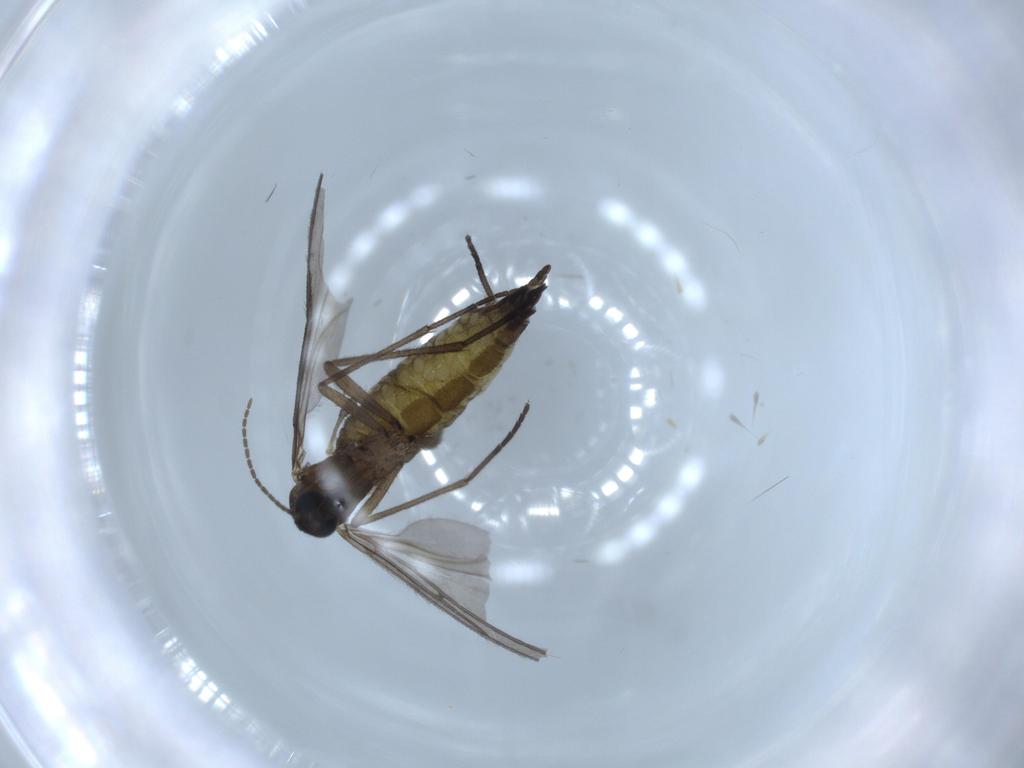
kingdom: Animalia
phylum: Arthropoda
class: Insecta
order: Diptera
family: Sciaridae
